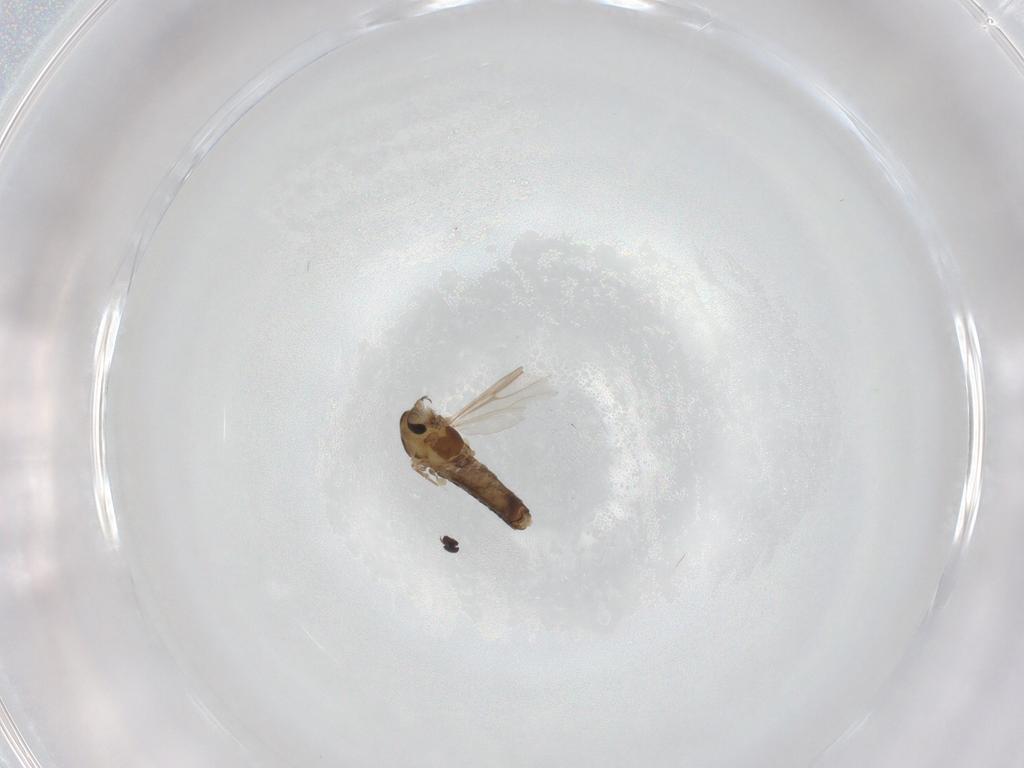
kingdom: Animalia
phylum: Arthropoda
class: Insecta
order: Diptera
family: Chironomidae
